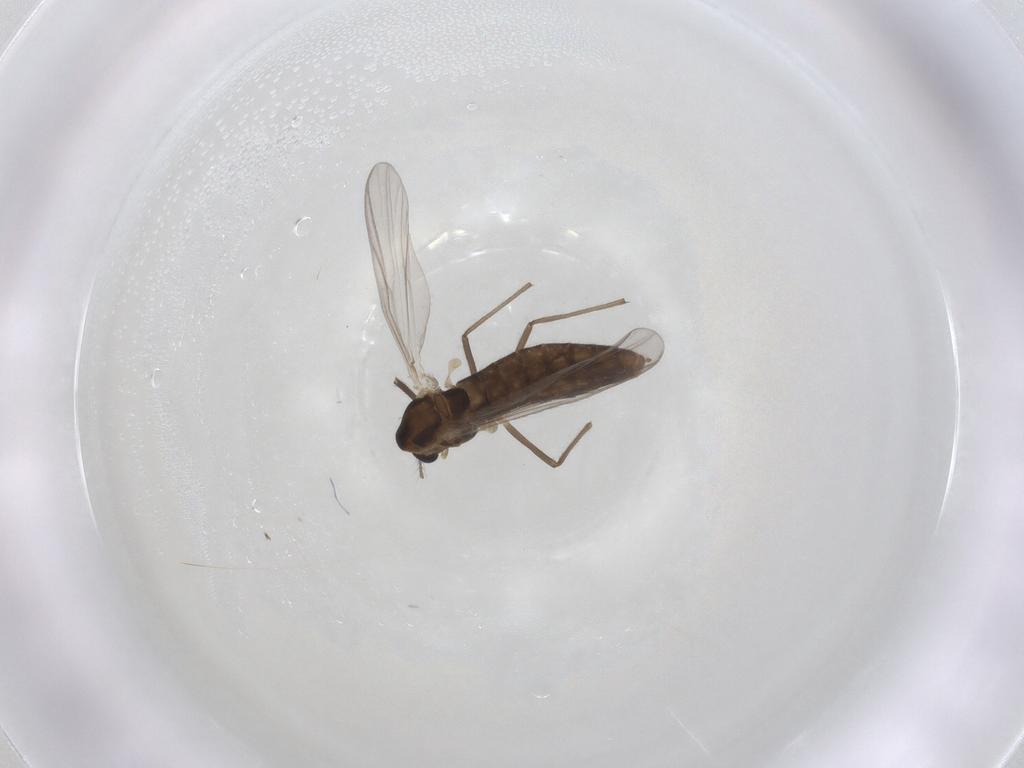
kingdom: Animalia
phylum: Arthropoda
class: Insecta
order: Diptera
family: Chironomidae
